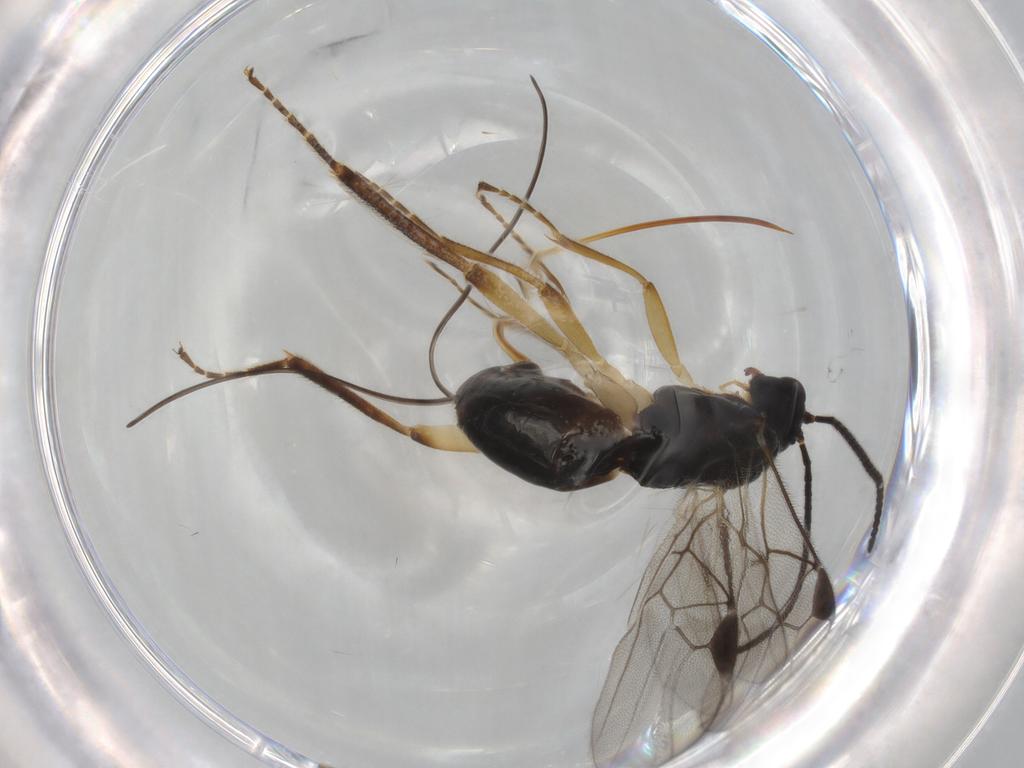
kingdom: Animalia
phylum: Arthropoda
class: Insecta
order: Hymenoptera
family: Braconidae
